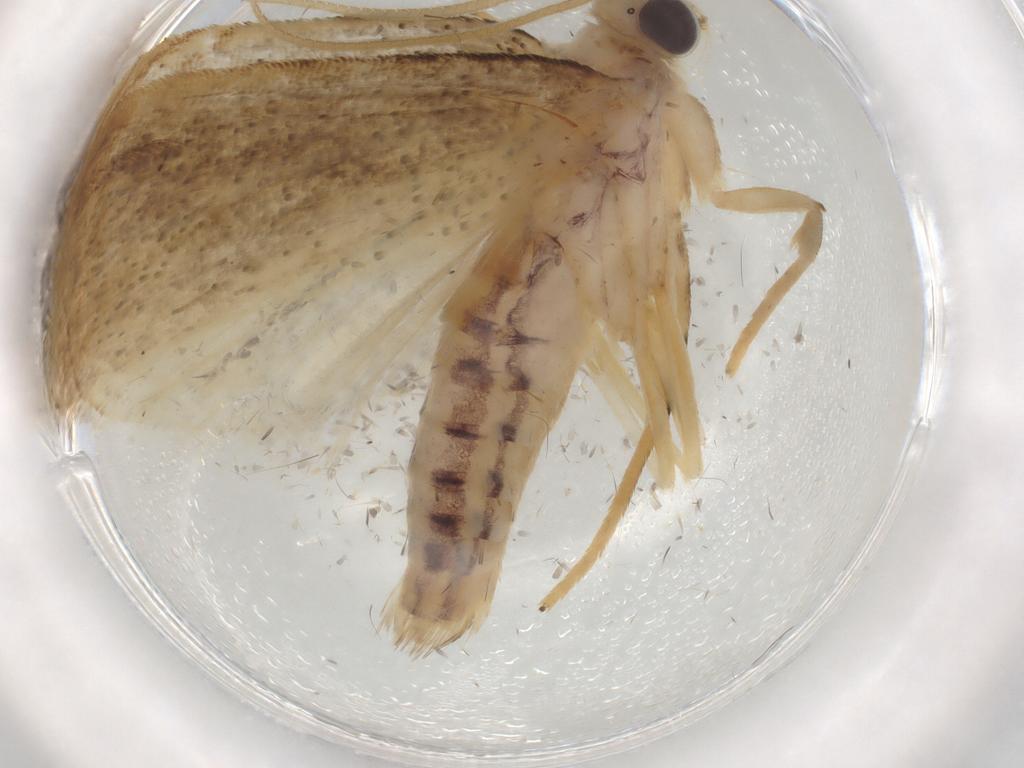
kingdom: Animalia
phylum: Arthropoda
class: Insecta
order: Lepidoptera
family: Crambidae
